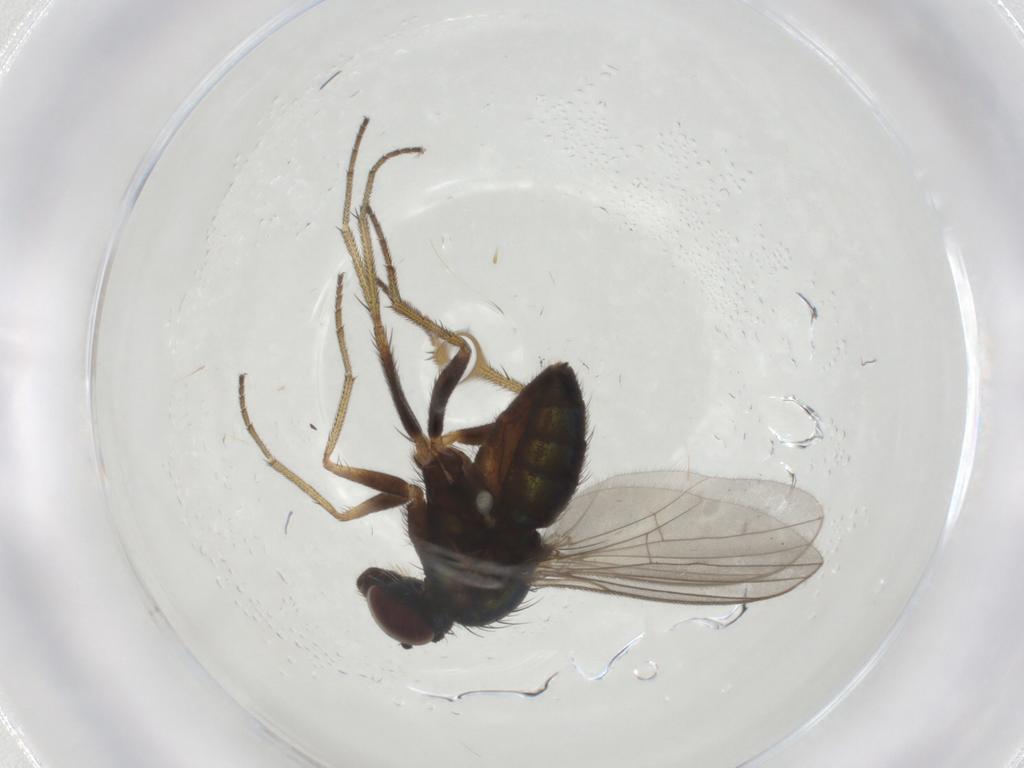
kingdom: Animalia
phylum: Arthropoda
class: Insecta
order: Diptera
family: Dolichopodidae
